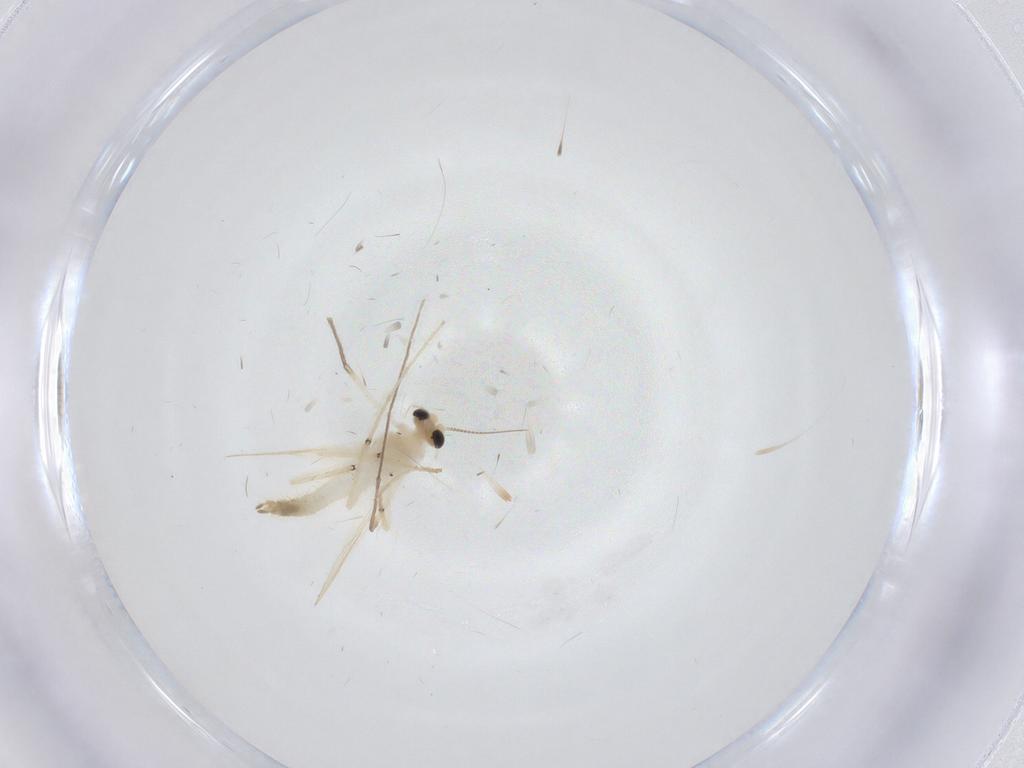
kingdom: Animalia
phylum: Arthropoda
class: Insecta
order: Diptera
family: Chironomidae
